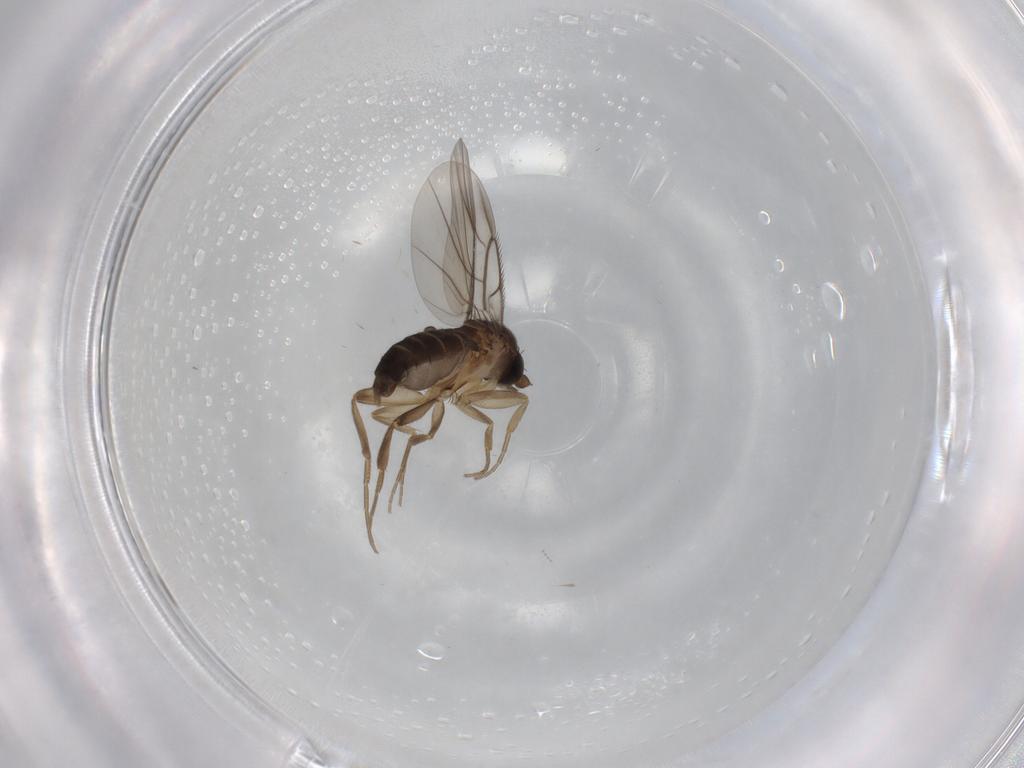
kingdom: Animalia
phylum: Arthropoda
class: Insecta
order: Diptera
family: Phoridae
